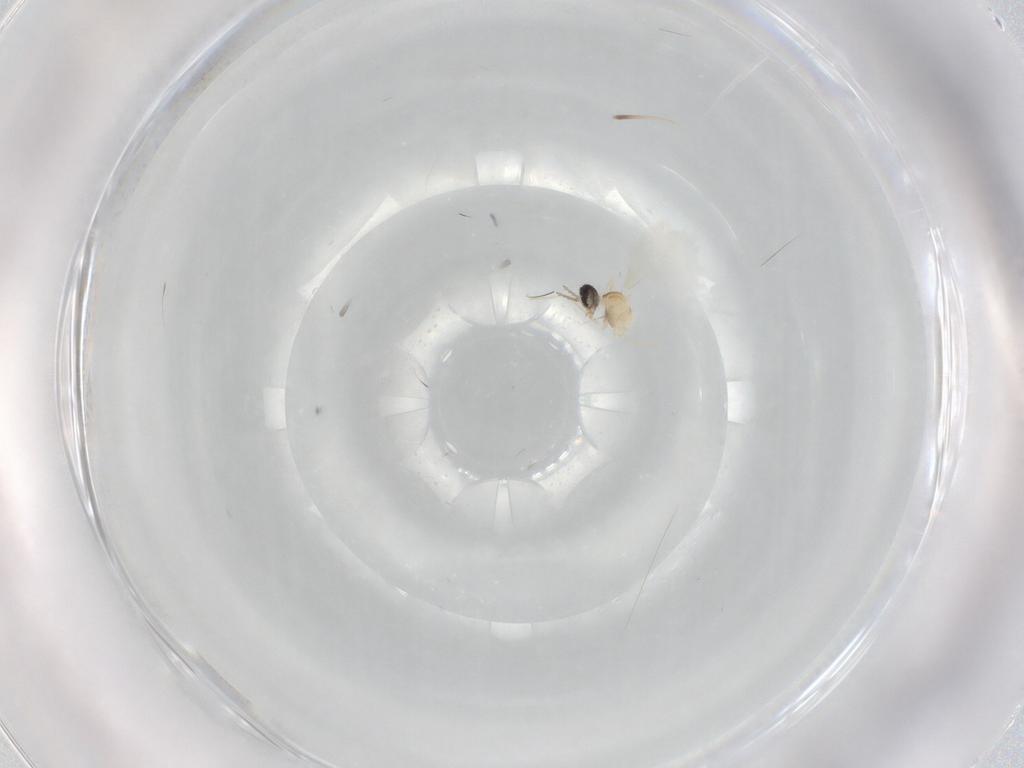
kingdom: Animalia
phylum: Arthropoda
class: Insecta
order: Diptera
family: Cecidomyiidae
